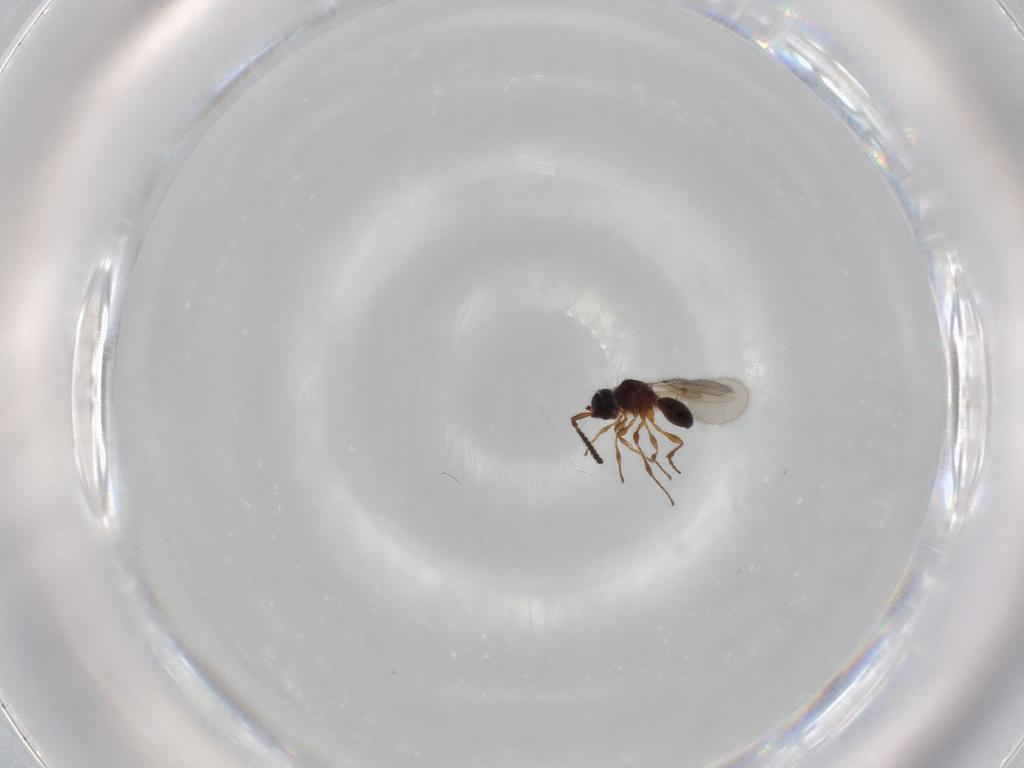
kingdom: Animalia
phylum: Arthropoda
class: Insecta
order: Hymenoptera
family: Diapriidae
